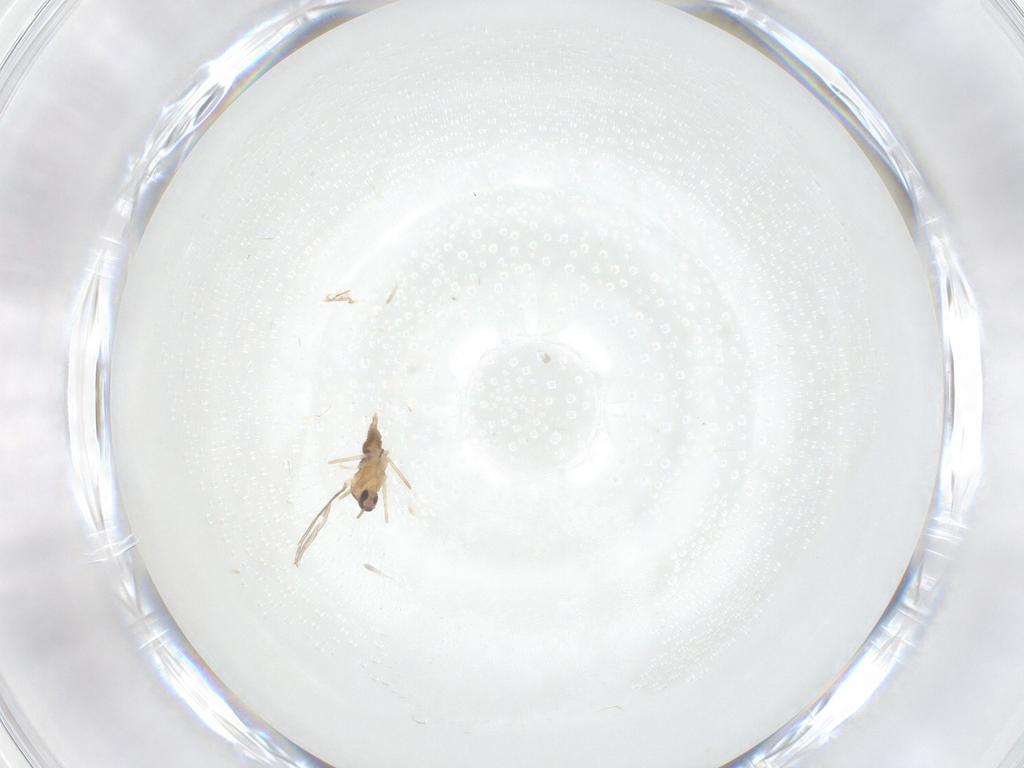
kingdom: Animalia
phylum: Arthropoda
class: Insecta
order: Diptera
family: Cecidomyiidae
